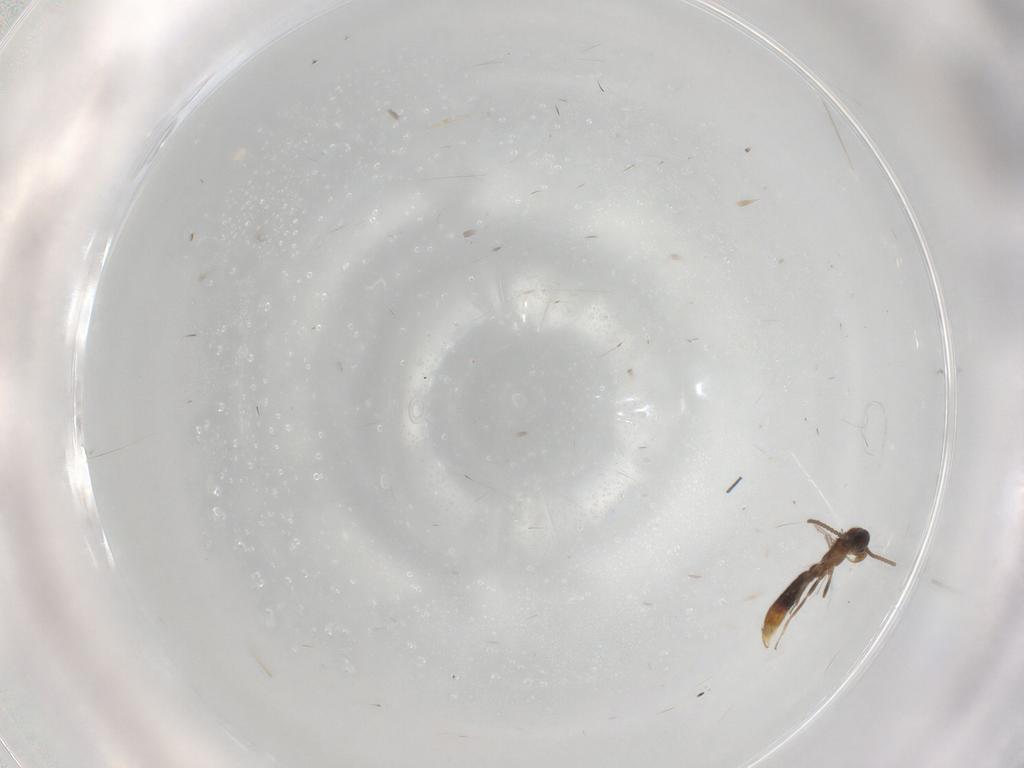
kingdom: Animalia
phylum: Arthropoda
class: Insecta
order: Hymenoptera
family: Formicidae
